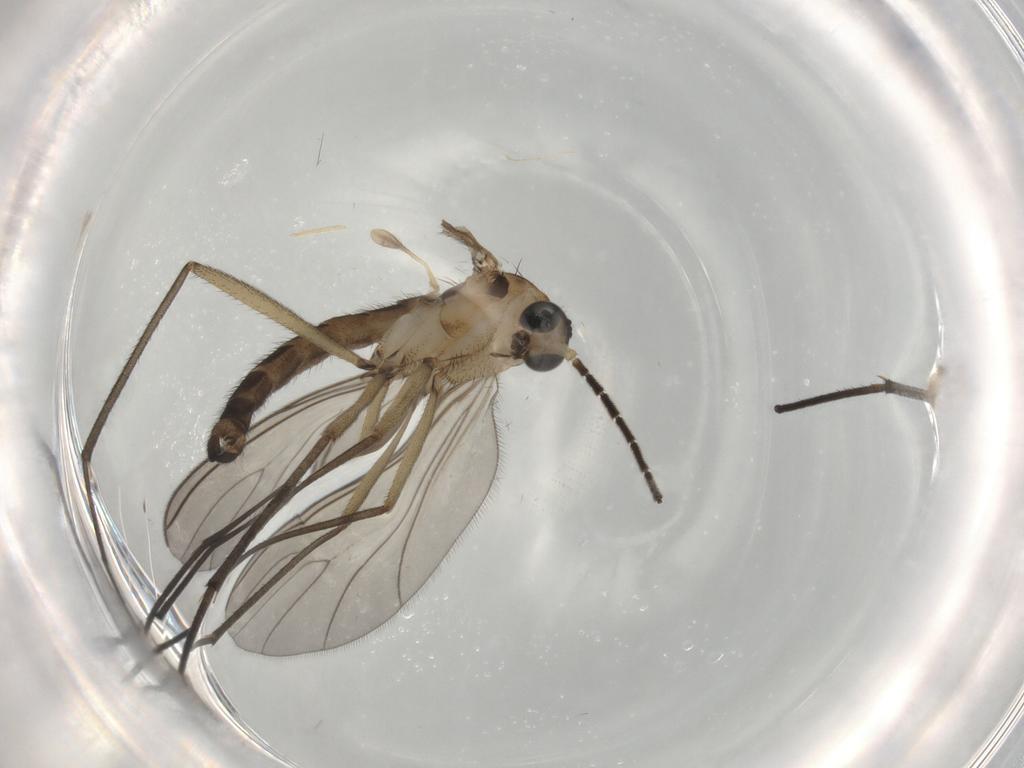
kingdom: Animalia
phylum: Arthropoda
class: Insecta
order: Diptera
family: Sciaridae
